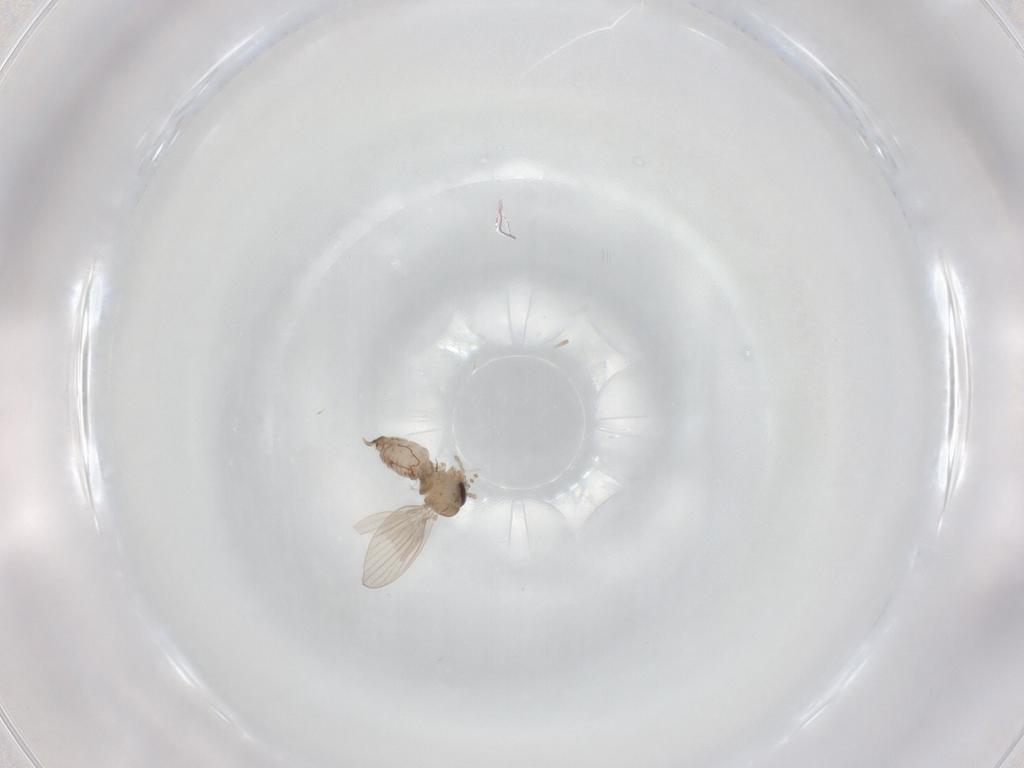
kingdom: Animalia
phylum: Arthropoda
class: Insecta
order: Diptera
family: Psychodidae
